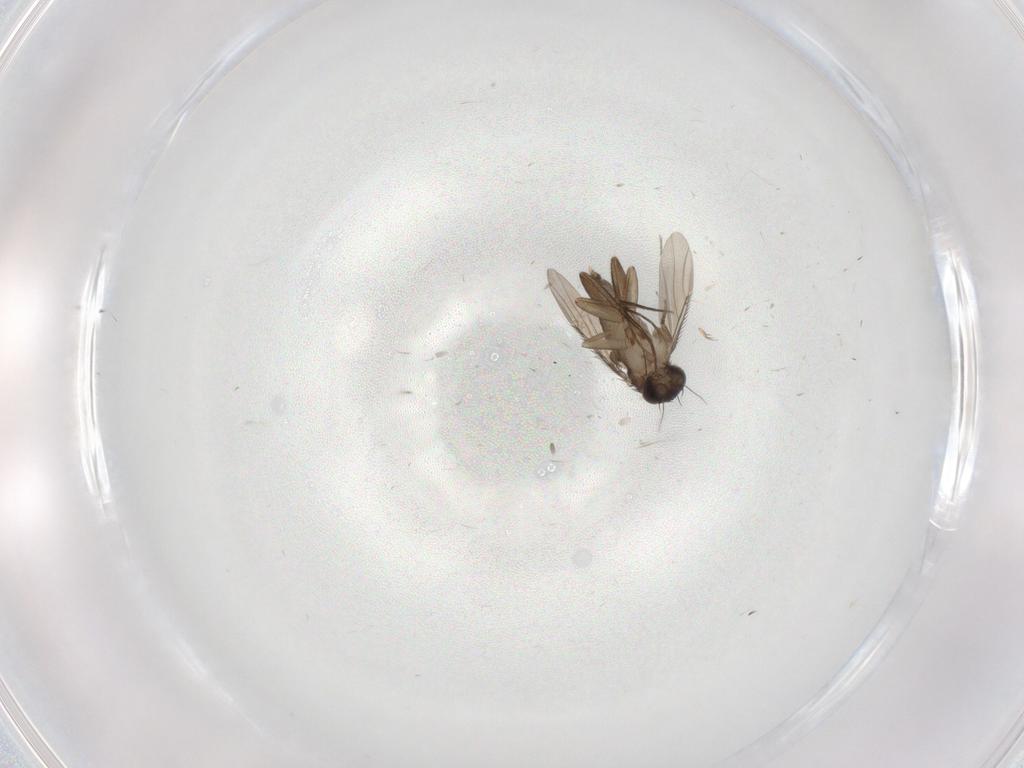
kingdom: Animalia
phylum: Arthropoda
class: Insecta
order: Diptera
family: Phoridae
